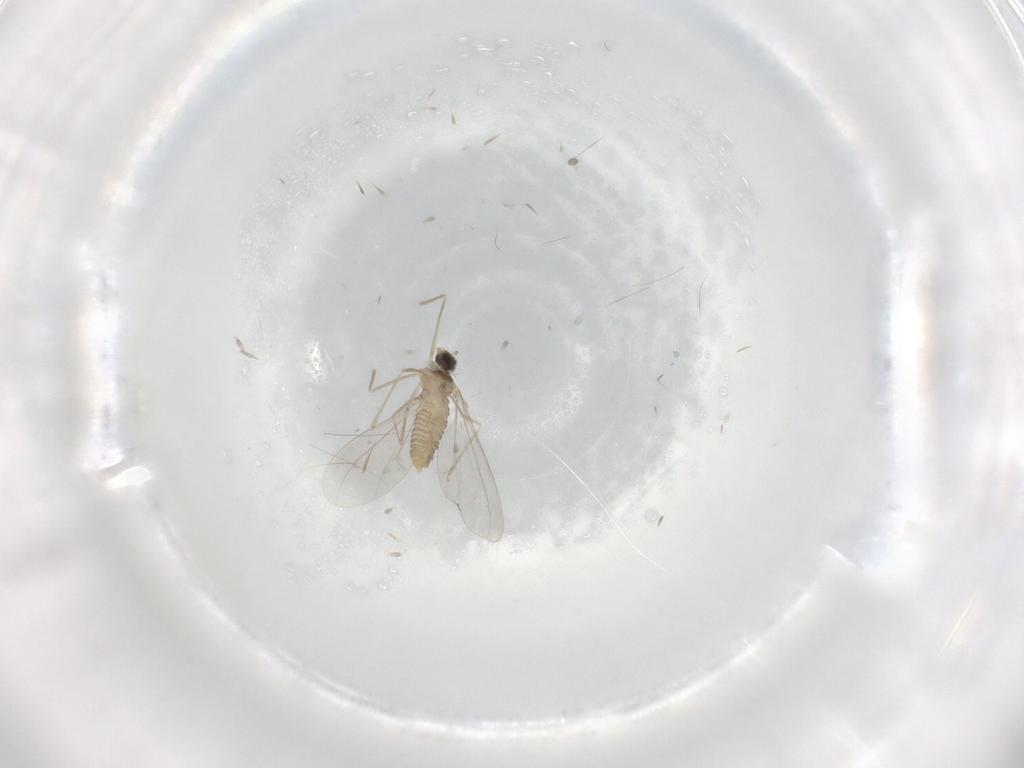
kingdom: Animalia
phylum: Arthropoda
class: Insecta
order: Diptera
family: Cecidomyiidae
